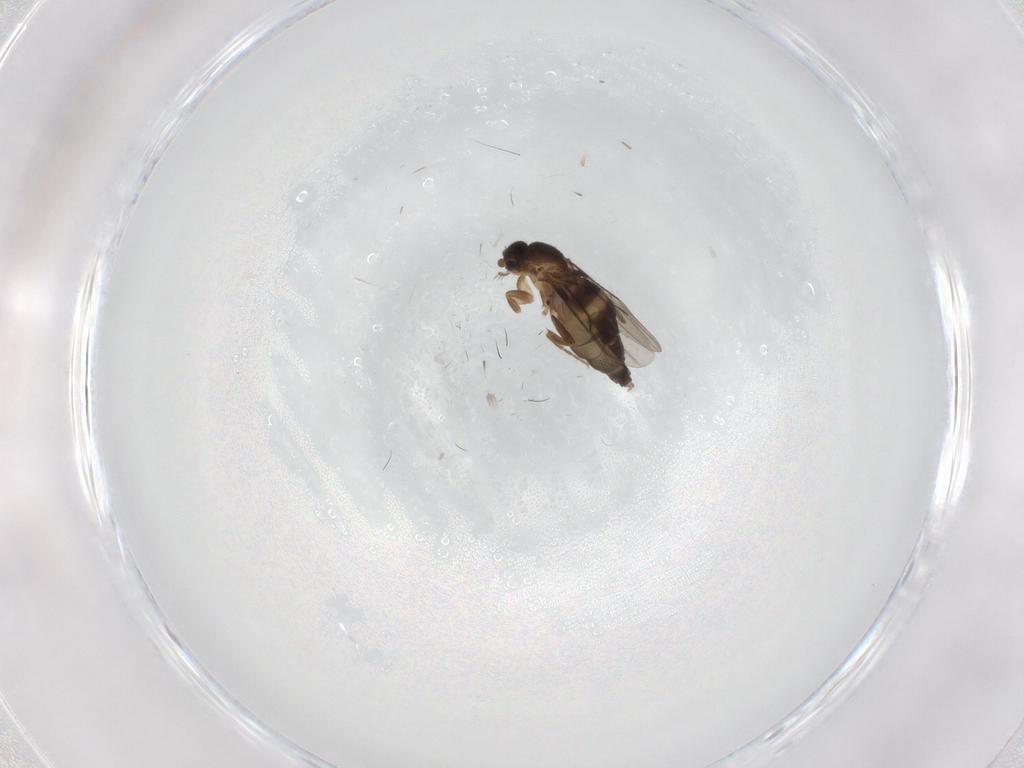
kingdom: Animalia
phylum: Arthropoda
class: Insecta
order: Diptera
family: Phoridae
